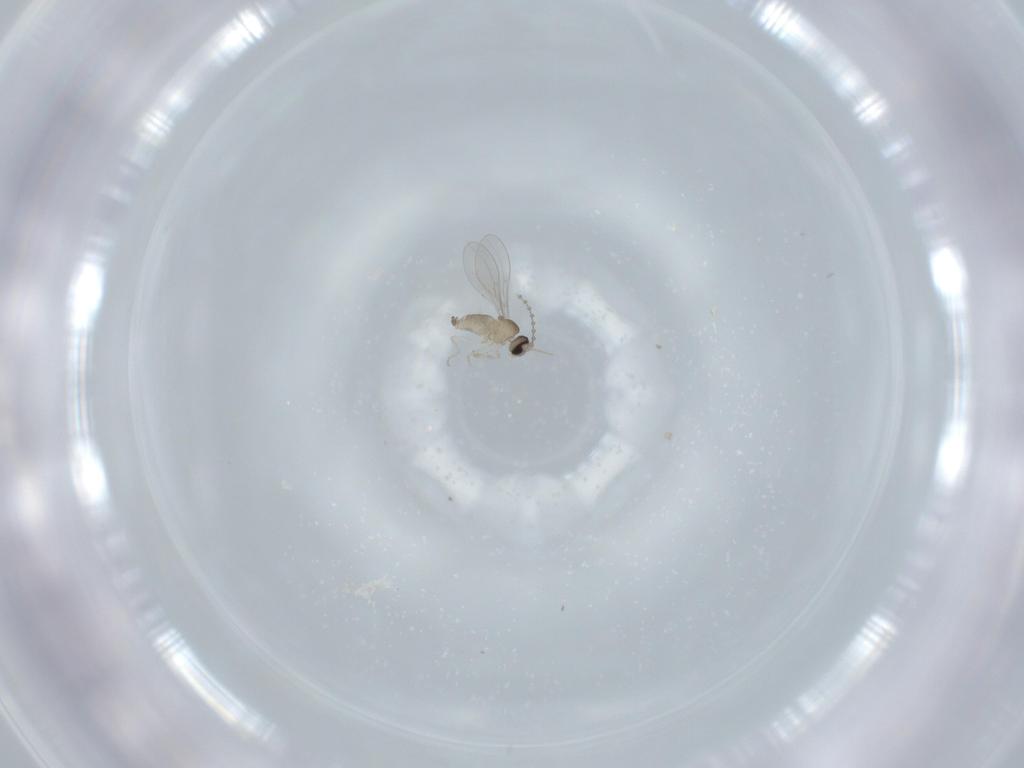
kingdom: Animalia
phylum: Arthropoda
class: Insecta
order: Diptera
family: Cecidomyiidae
